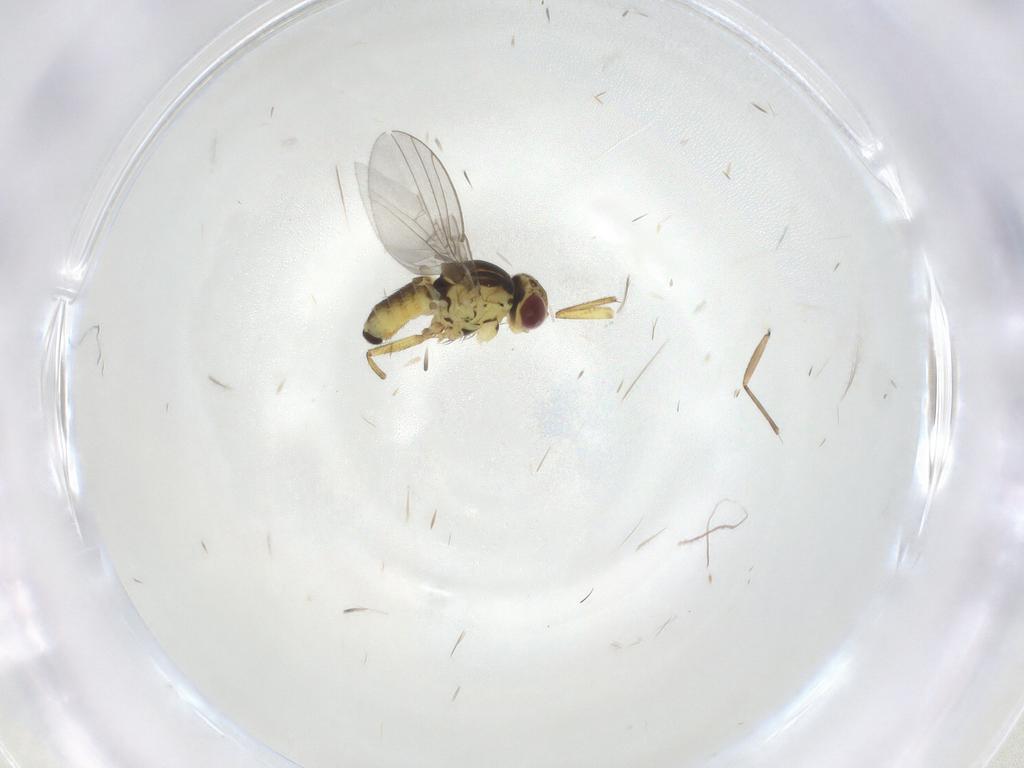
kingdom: Animalia
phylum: Arthropoda
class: Insecta
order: Diptera
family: Agromyzidae
